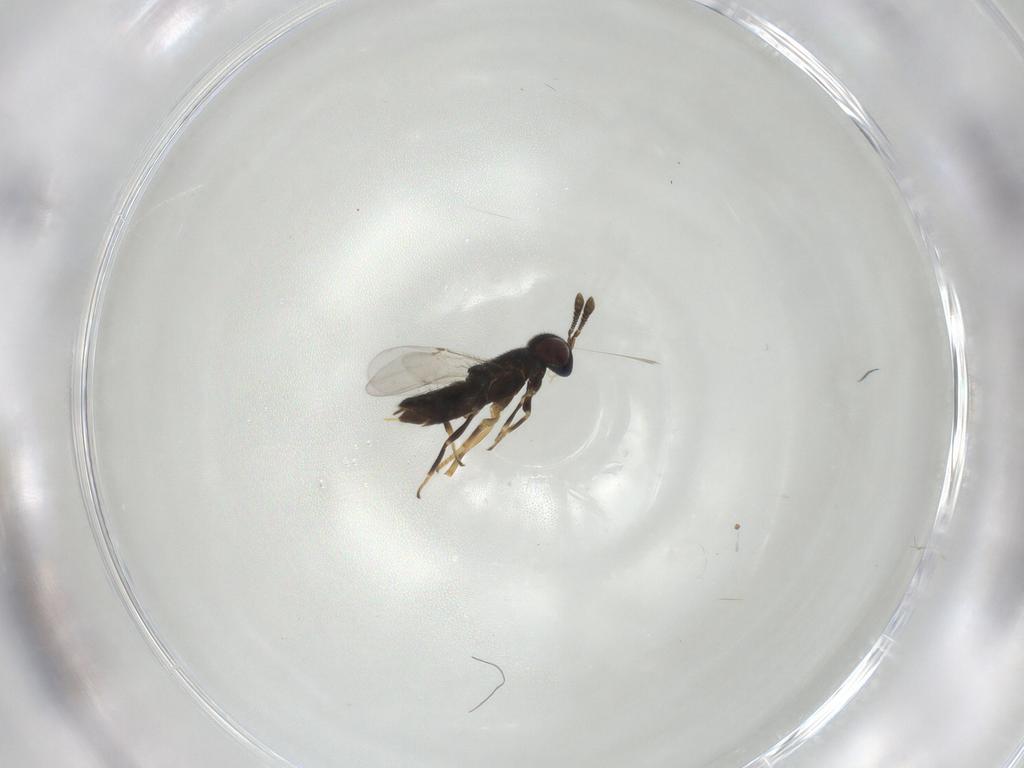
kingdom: Animalia
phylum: Arthropoda
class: Insecta
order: Hymenoptera
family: Encyrtidae
